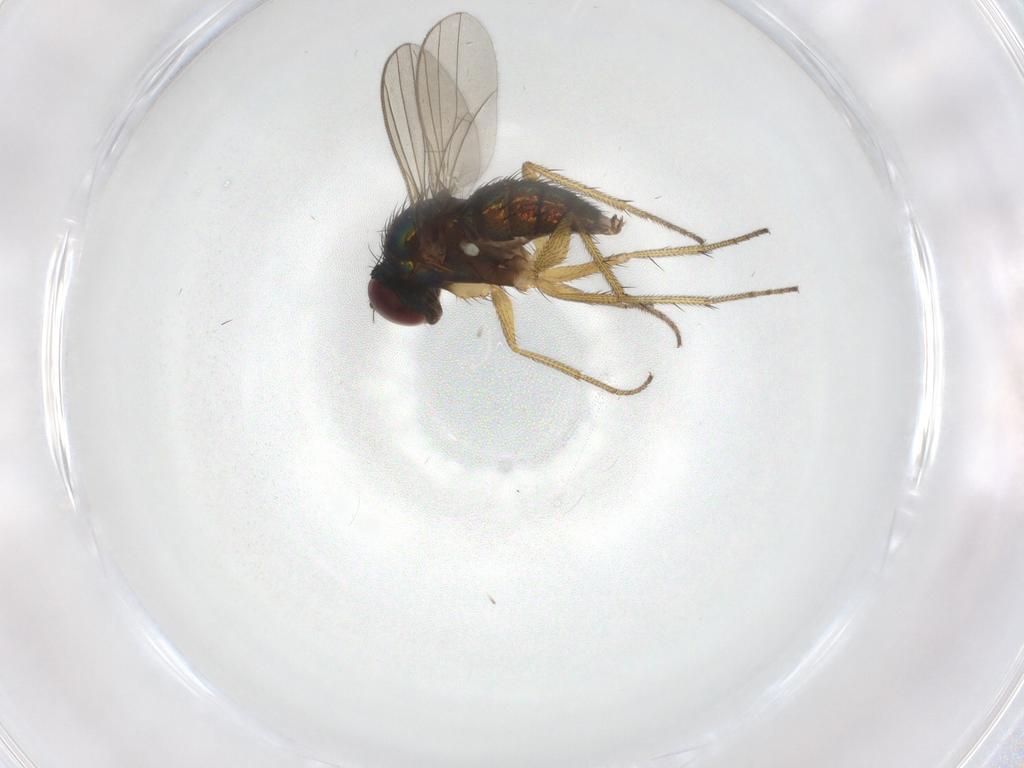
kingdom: Animalia
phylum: Arthropoda
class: Insecta
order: Diptera
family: Dolichopodidae
